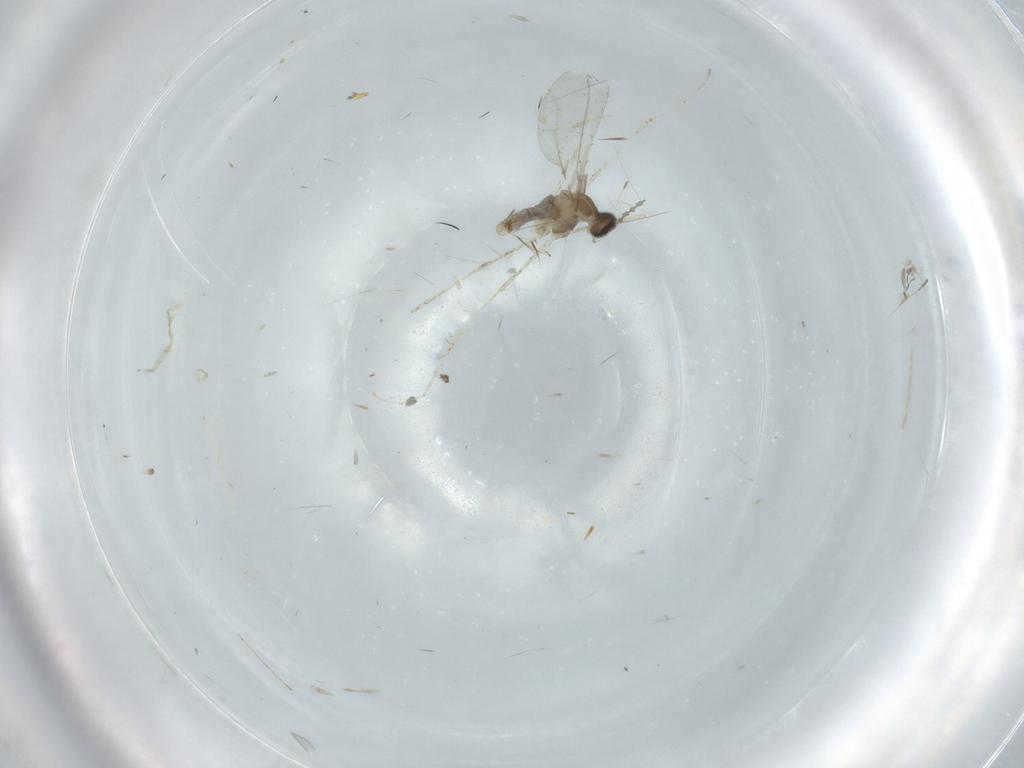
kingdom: Animalia
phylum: Arthropoda
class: Insecta
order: Diptera
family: Cecidomyiidae
